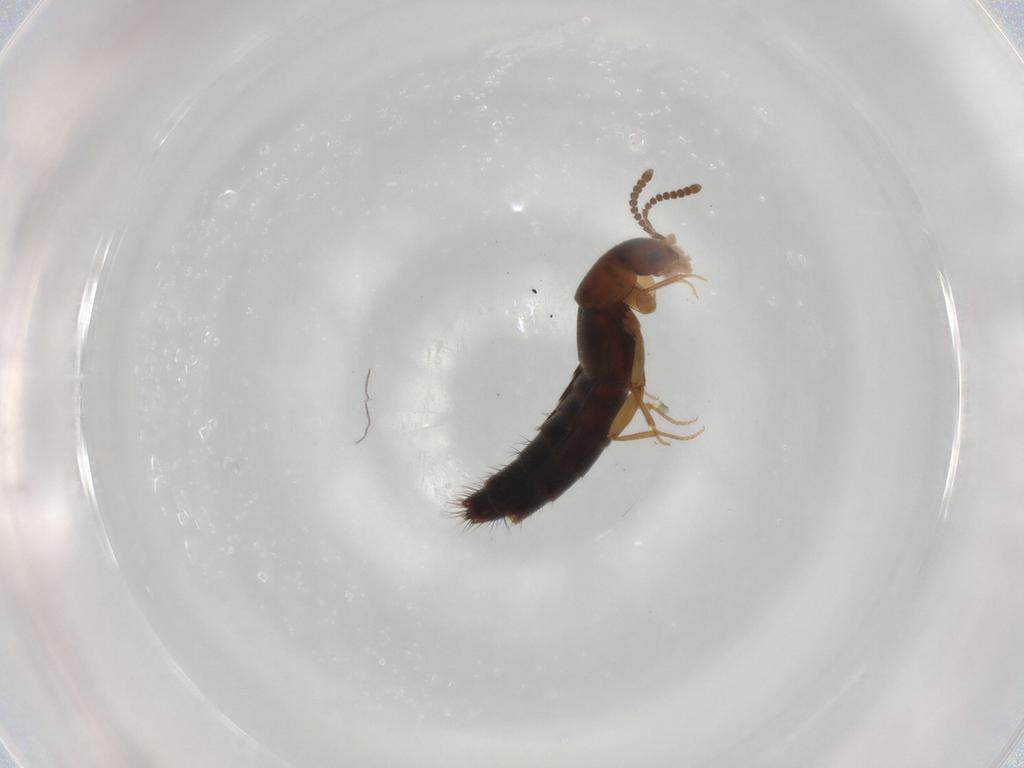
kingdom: Animalia
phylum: Arthropoda
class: Insecta
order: Coleoptera
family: Staphylinidae
